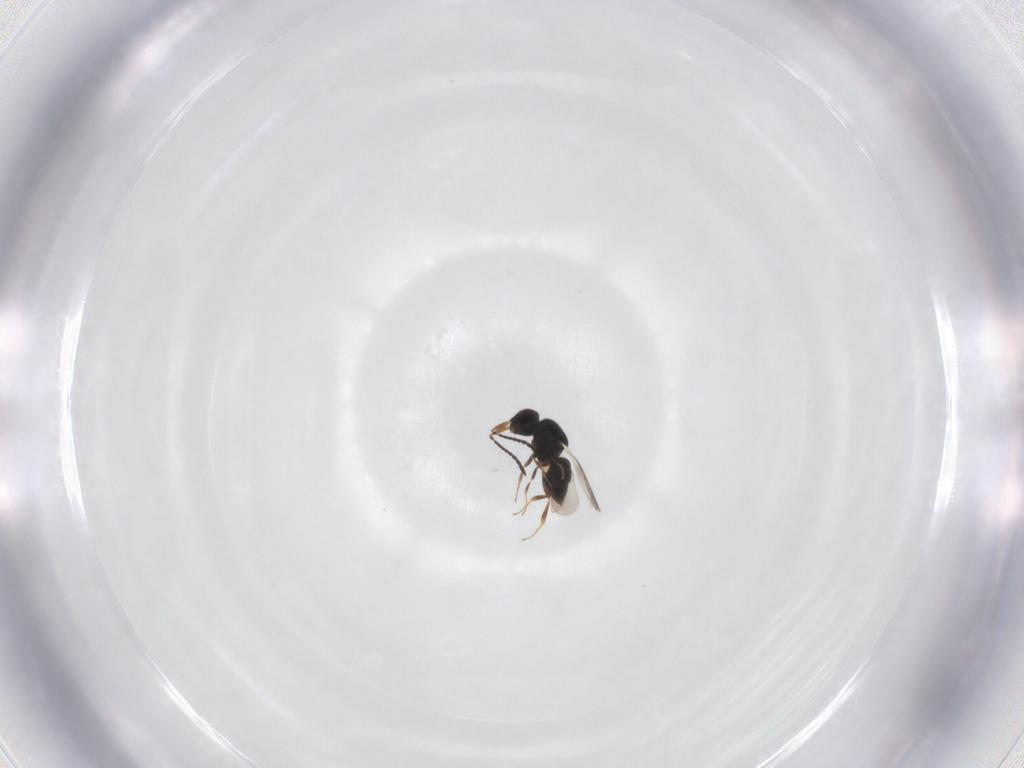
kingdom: Animalia
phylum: Arthropoda
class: Insecta
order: Hymenoptera
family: Ceraphronidae
